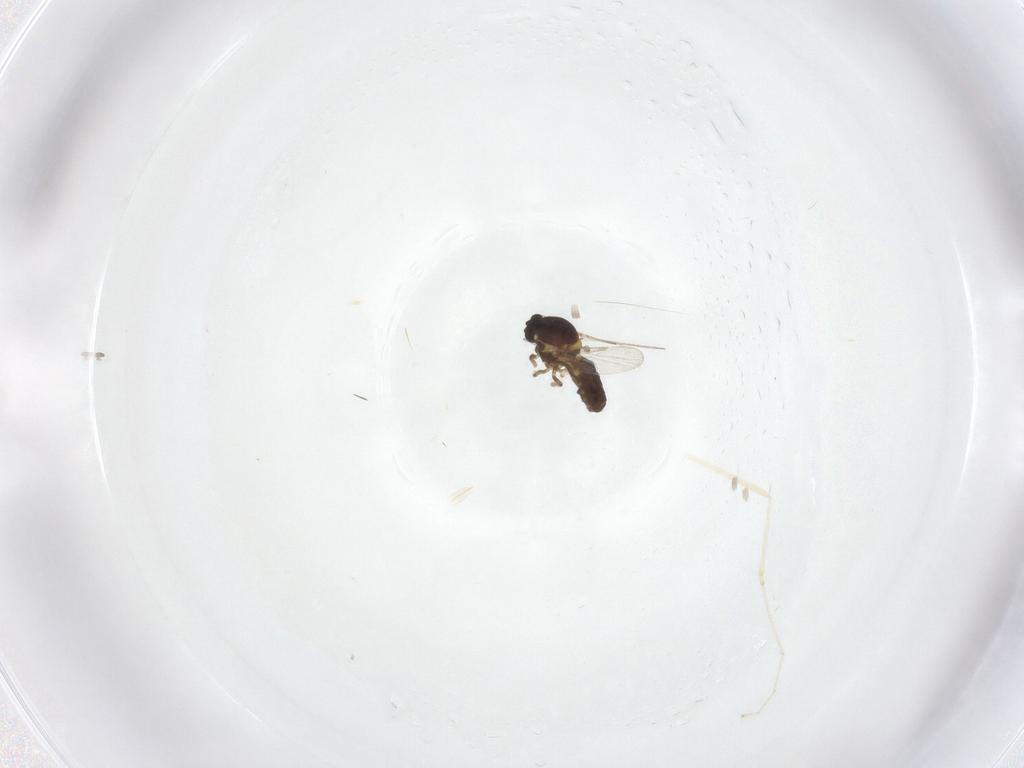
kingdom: Animalia
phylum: Arthropoda
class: Insecta
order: Diptera
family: Ceratopogonidae
